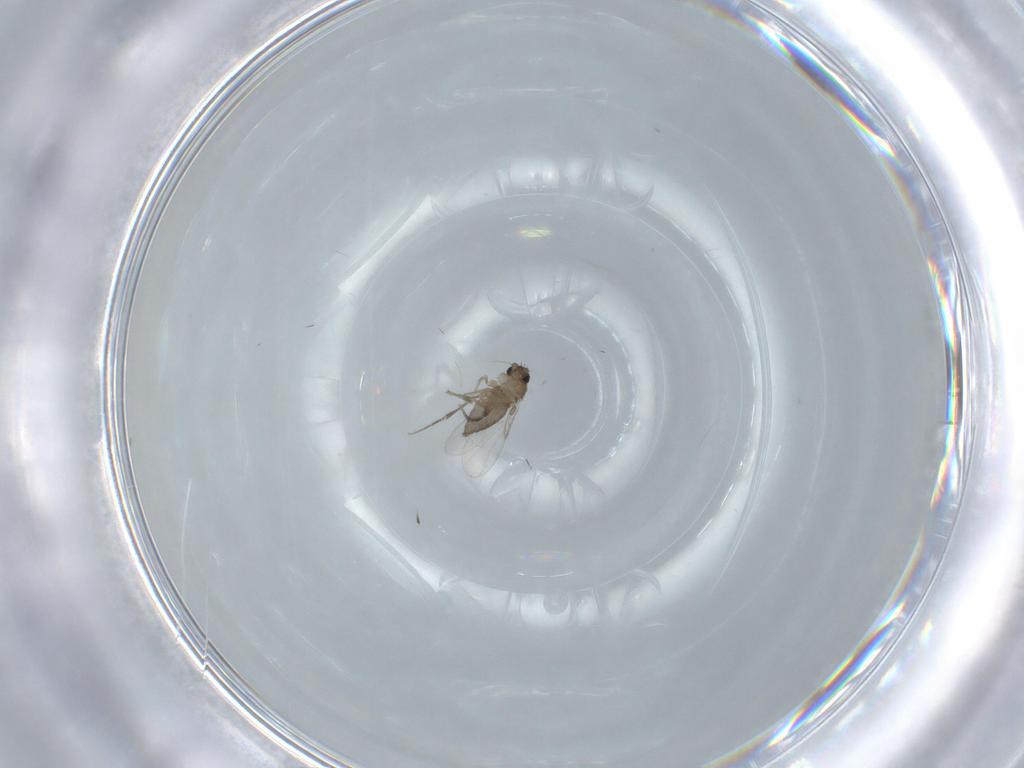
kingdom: Animalia
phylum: Arthropoda
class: Insecta
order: Diptera
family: Phoridae
